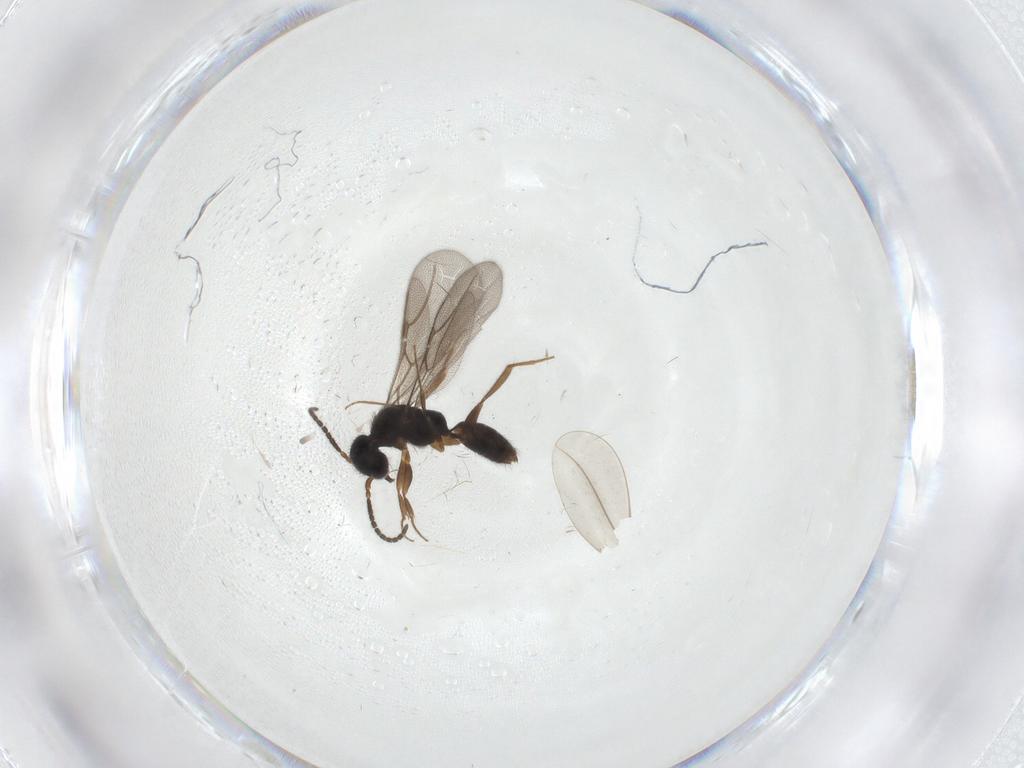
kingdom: Animalia
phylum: Arthropoda
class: Insecta
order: Hymenoptera
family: Bethylidae
